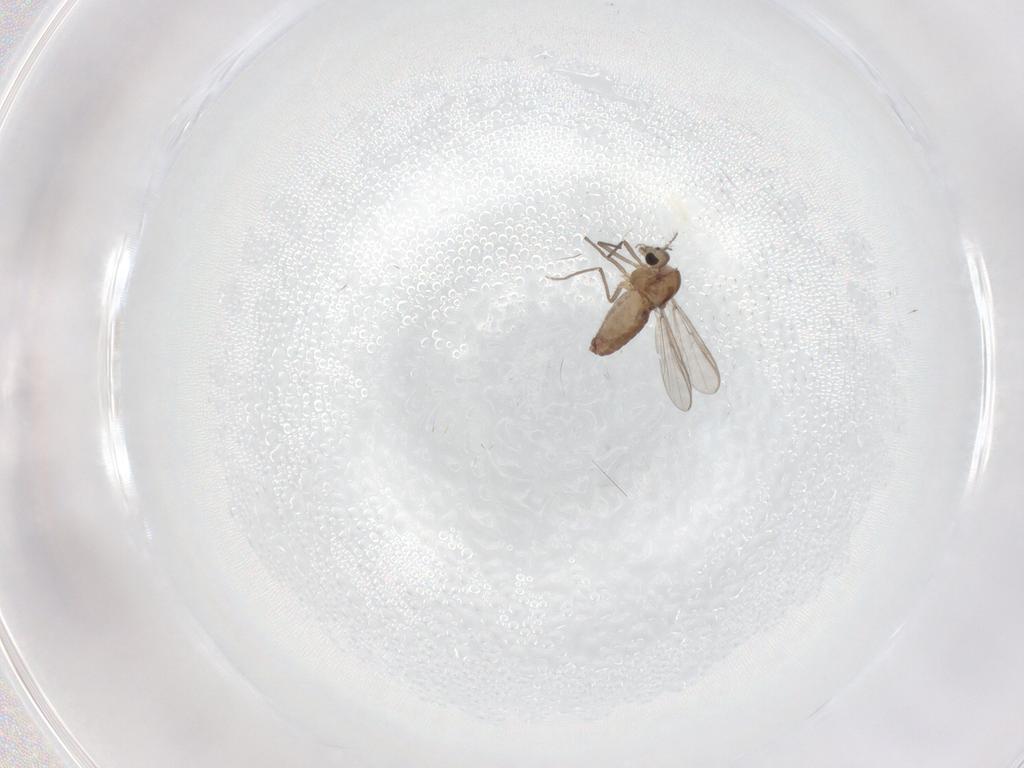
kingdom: Animalia
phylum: Arthropoda
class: Insecta
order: Diptera
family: Chironomidae
